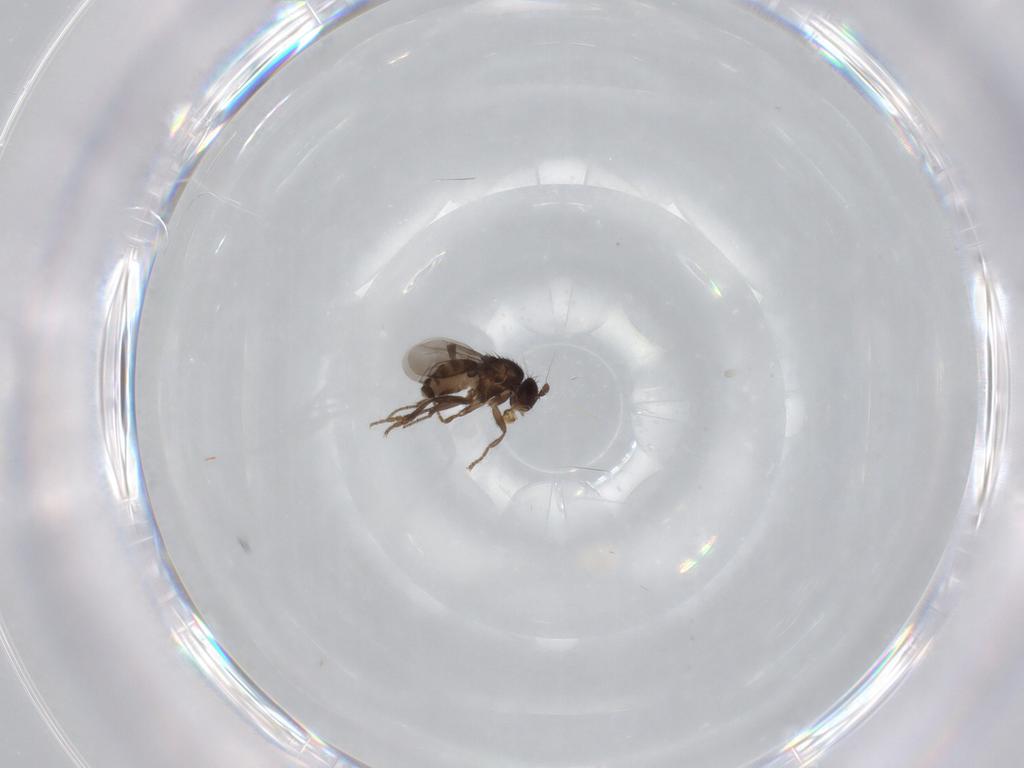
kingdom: Animalia
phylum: Arthropoda
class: Insecta
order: Diptera
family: Sphaeroceridae
